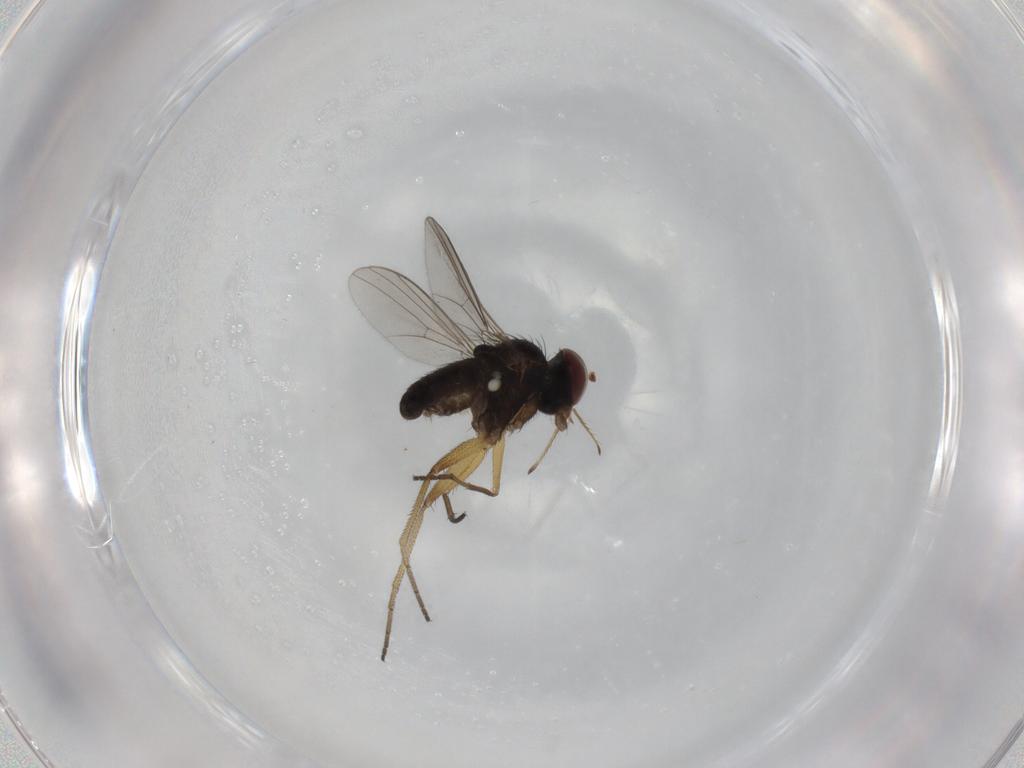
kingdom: Animalia
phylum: Arthropoda
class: Insecta
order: Diptera
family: Dolichopodidae
